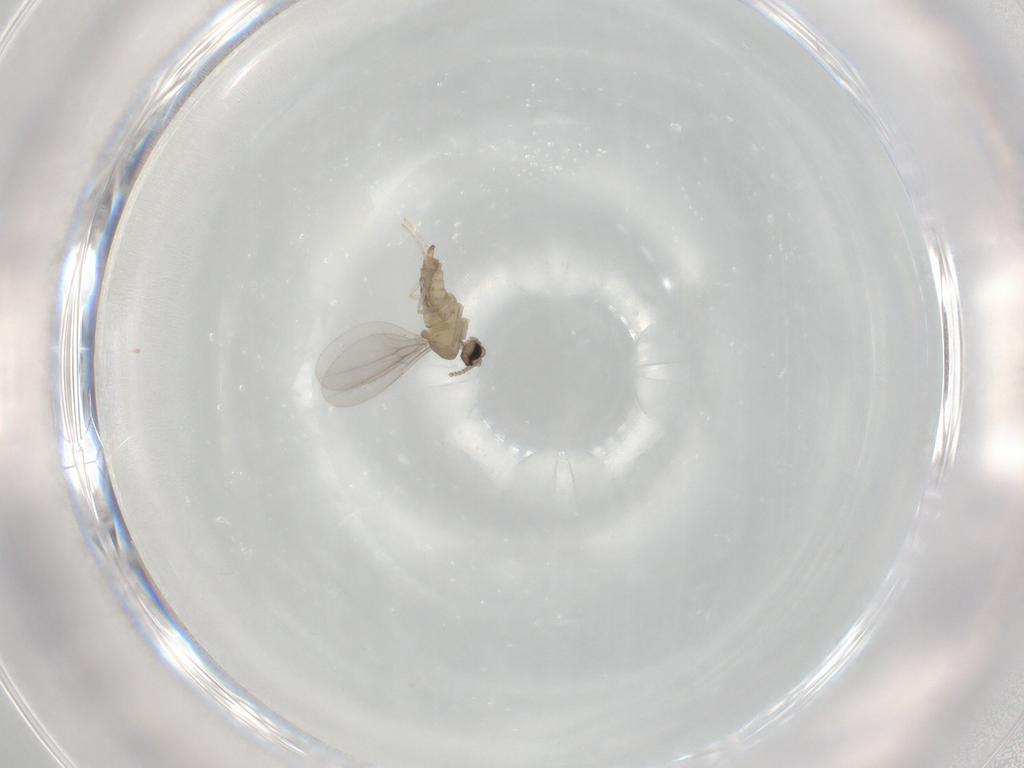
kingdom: Animalia
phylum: Arthropoda
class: Insecta
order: Diptera
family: Cecidomyiidae
